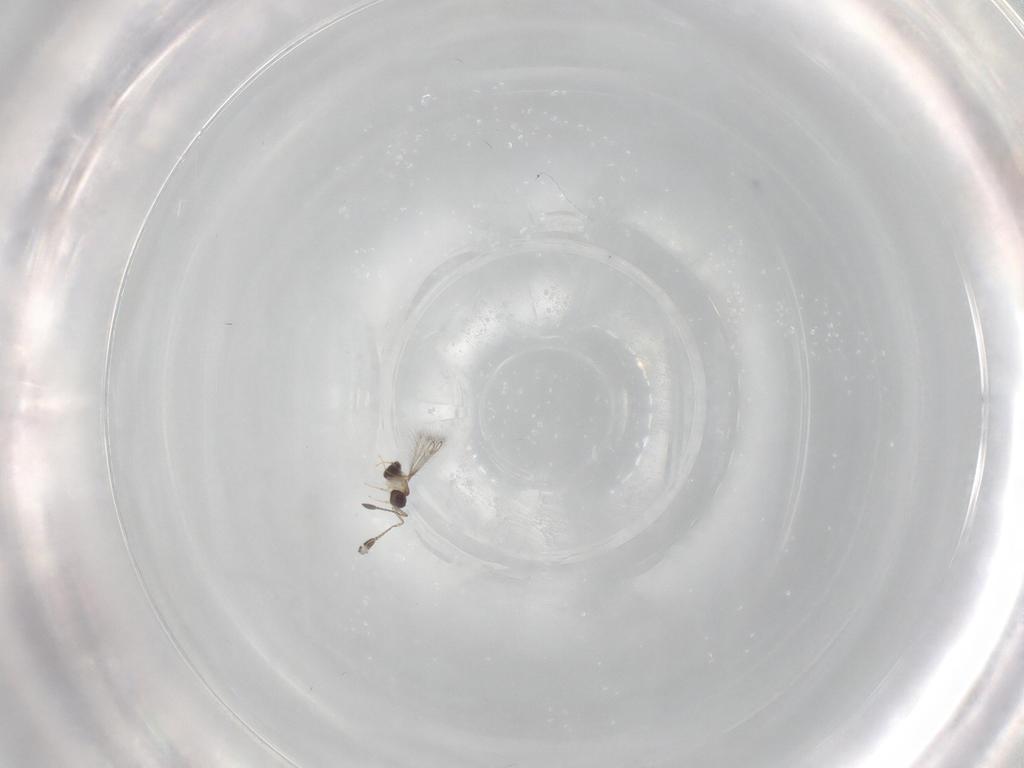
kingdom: Animalia
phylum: Arthropoda
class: Insecta
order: Hymenoptera
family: Mymaridae
